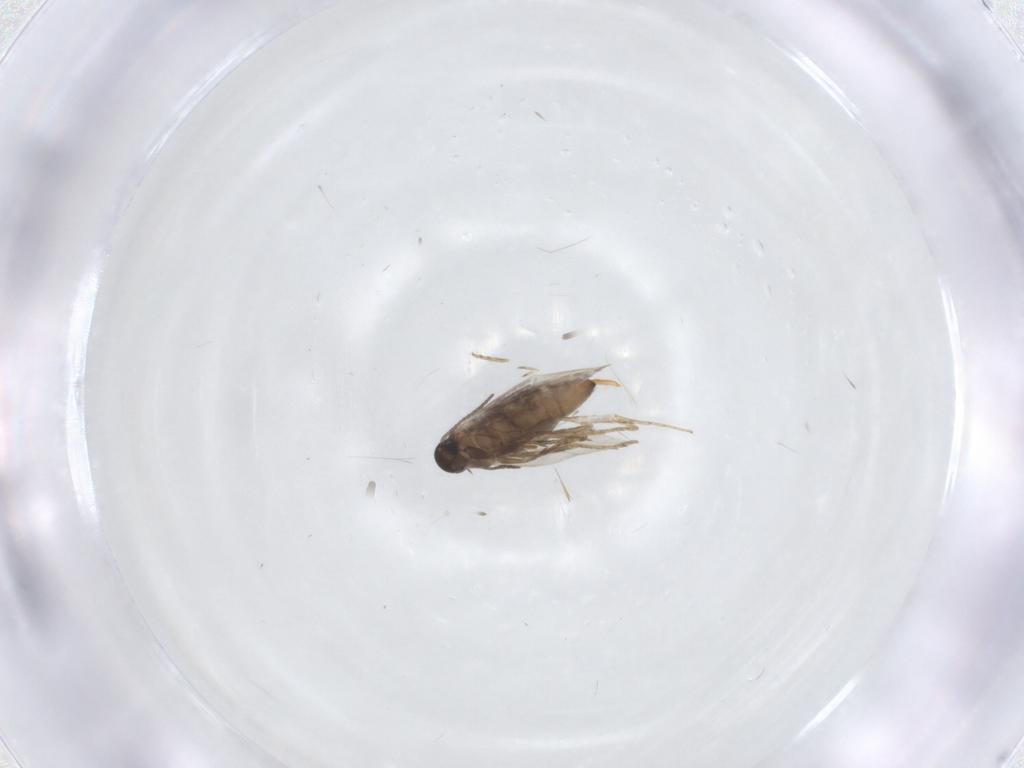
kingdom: Animalia
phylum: Arthropoda
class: Insecta
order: Lepidoptera
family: Heliozelidae
